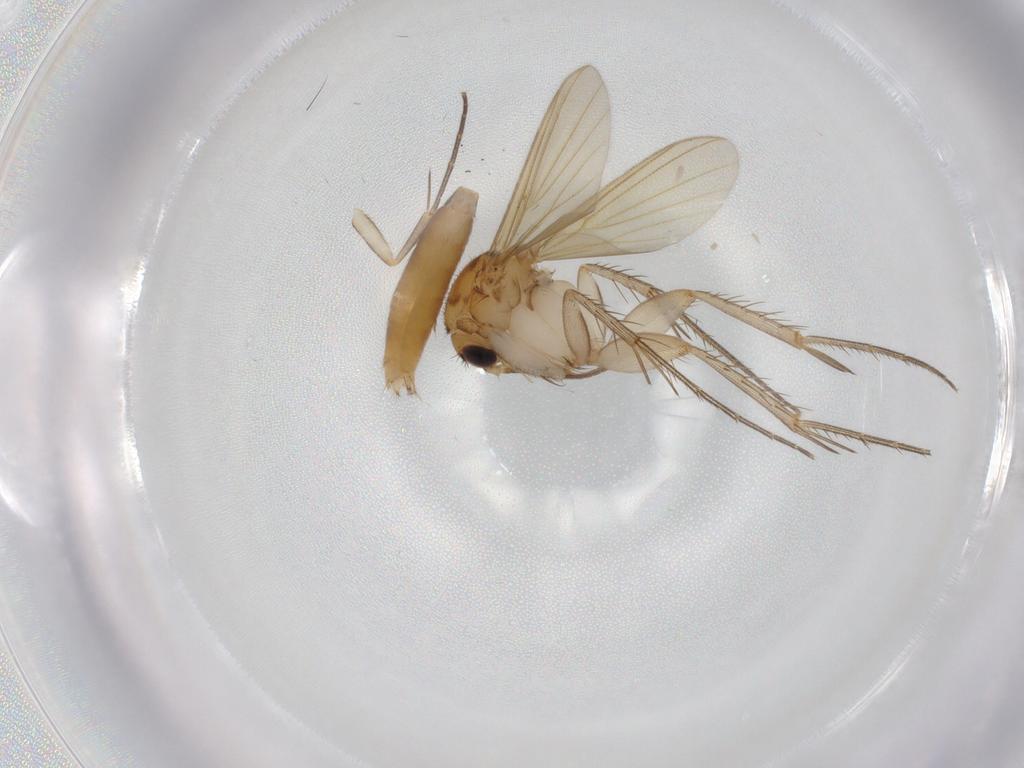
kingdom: Animalia
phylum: Arthropoda
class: Insecta
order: Diptera
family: Mycetophilidae
